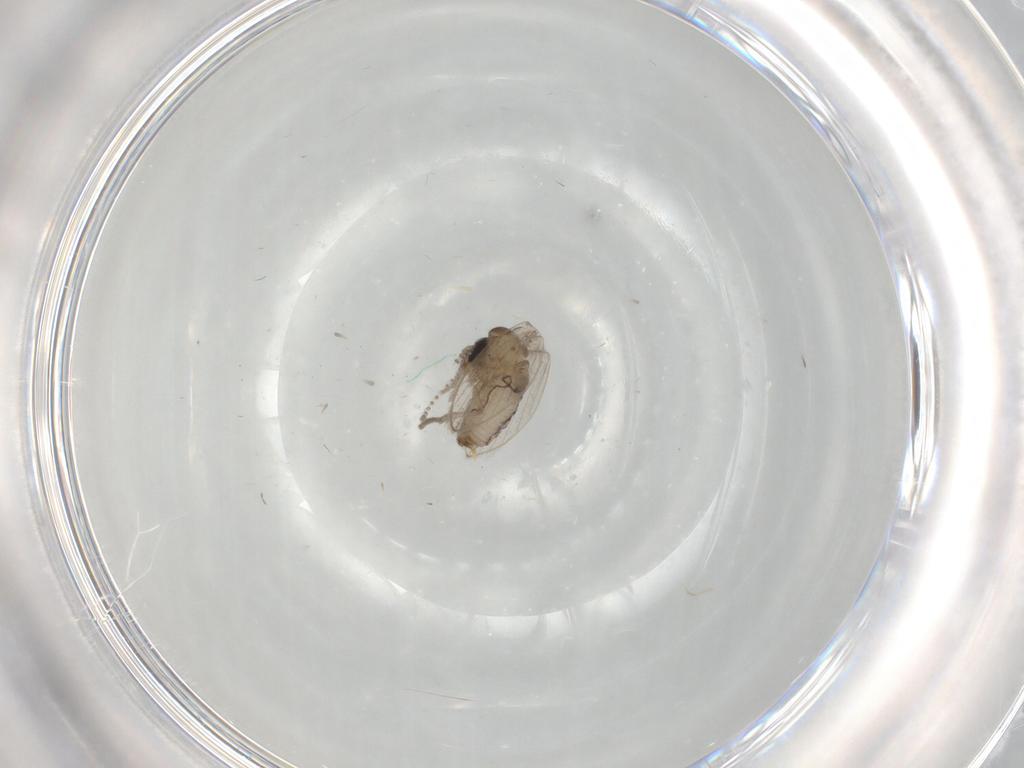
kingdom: Animalia
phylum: Arthropoda
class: Insecta
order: Diptera
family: Psychodidae
